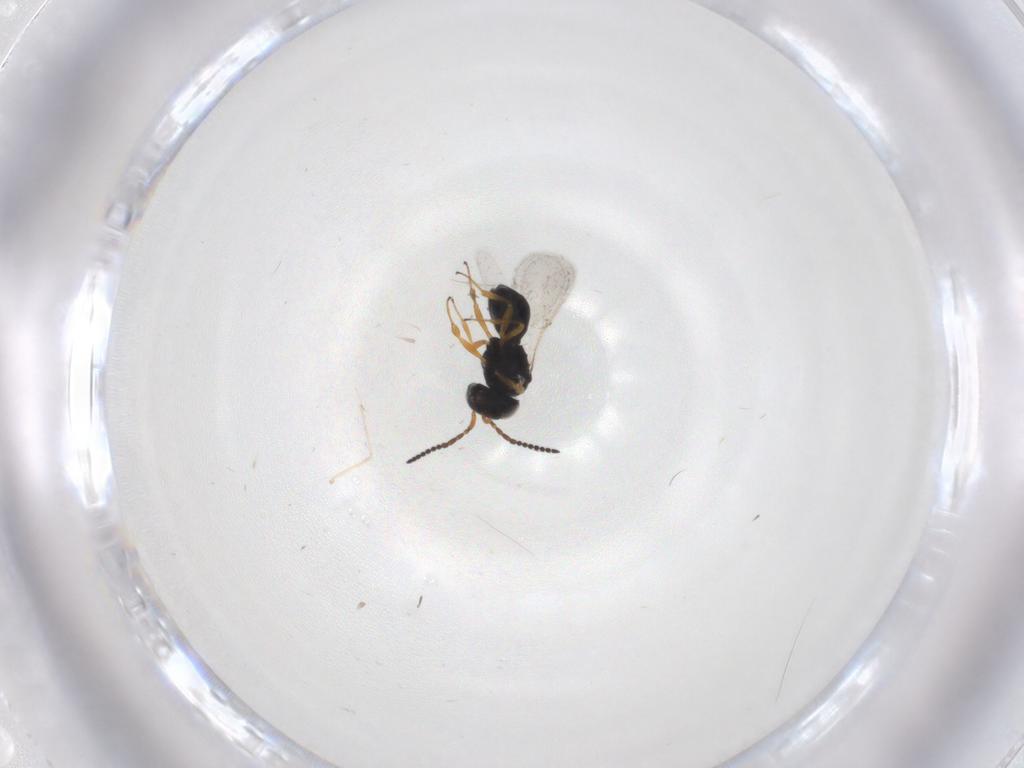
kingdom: Animalia
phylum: Arthropoda
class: Insecta
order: Hymenoptera
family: Scelionidae
